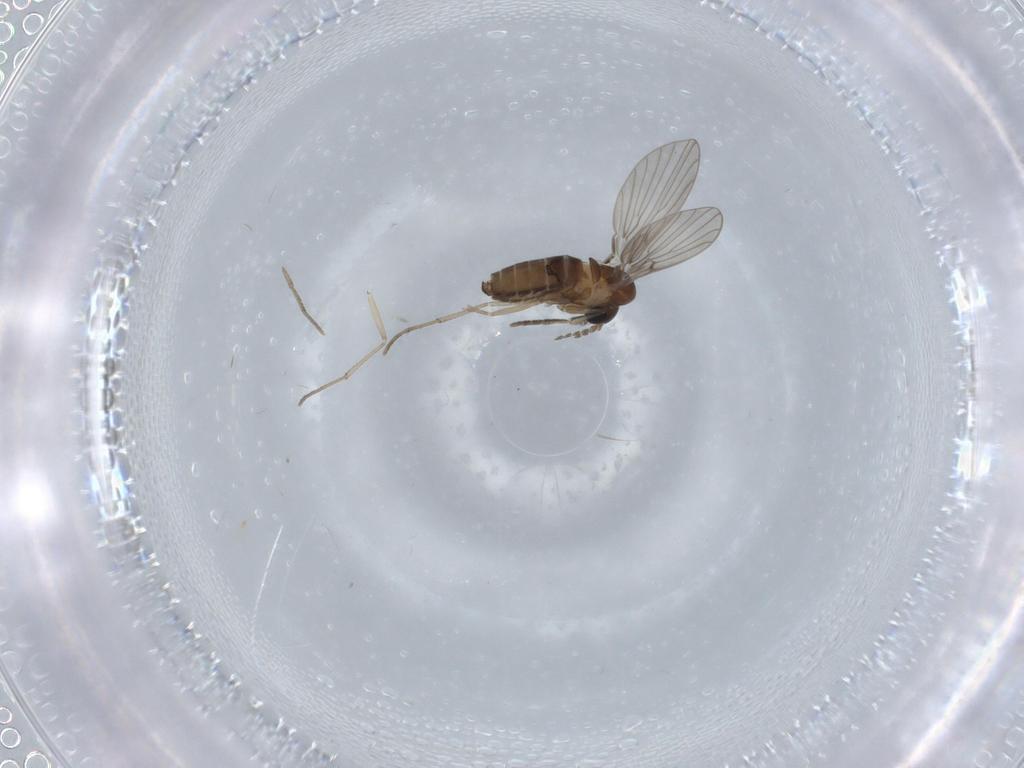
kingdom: Animalia
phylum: Arthropoda
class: Insecta
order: Diptera
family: Psychodidae
